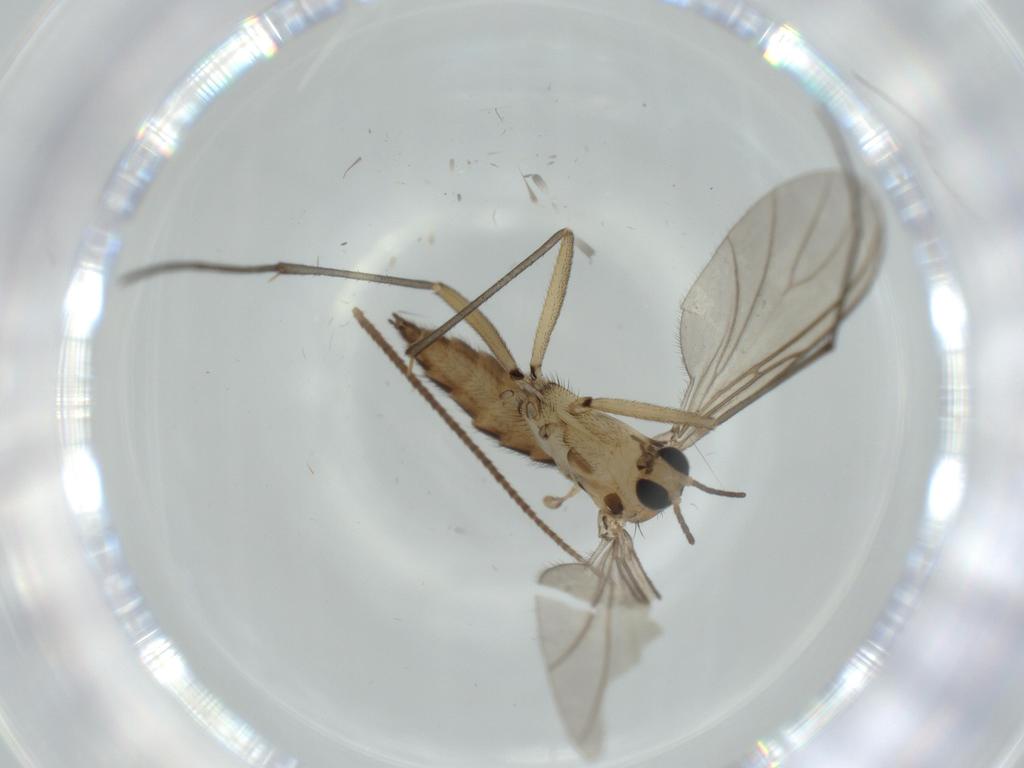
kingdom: Animalia
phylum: Arthropoda
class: Insecta
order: Diptera
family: Sciaridae
